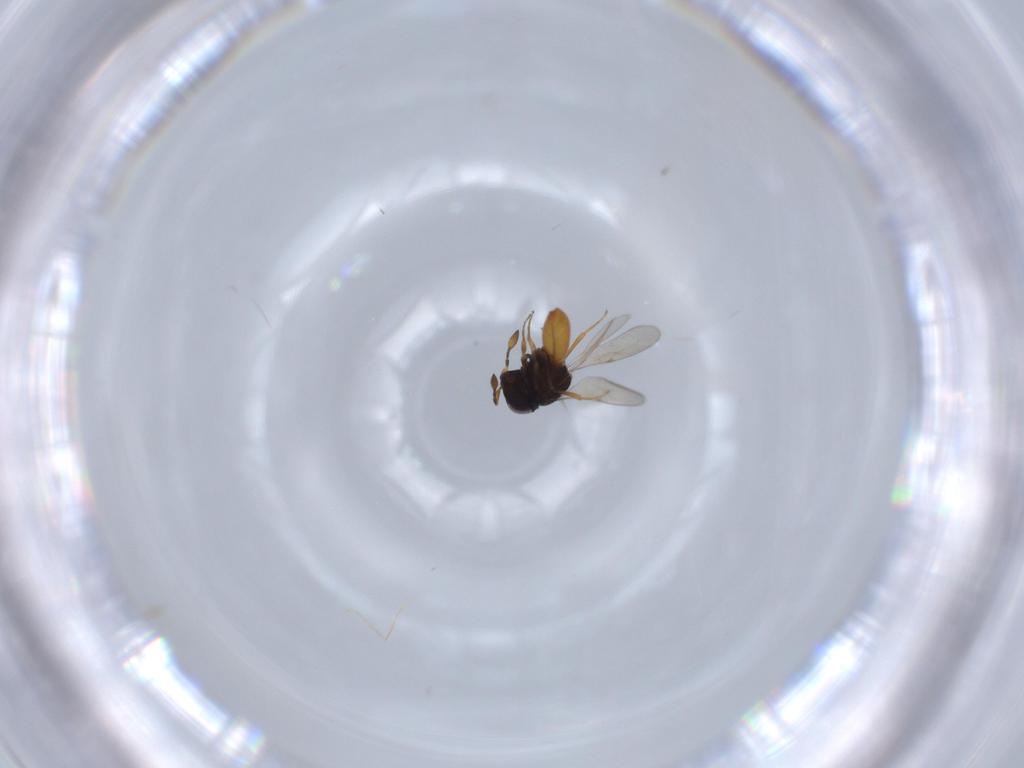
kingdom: Animalia
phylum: Arthropoda
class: Insecta
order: Hymenoptera
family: Scelionidae
